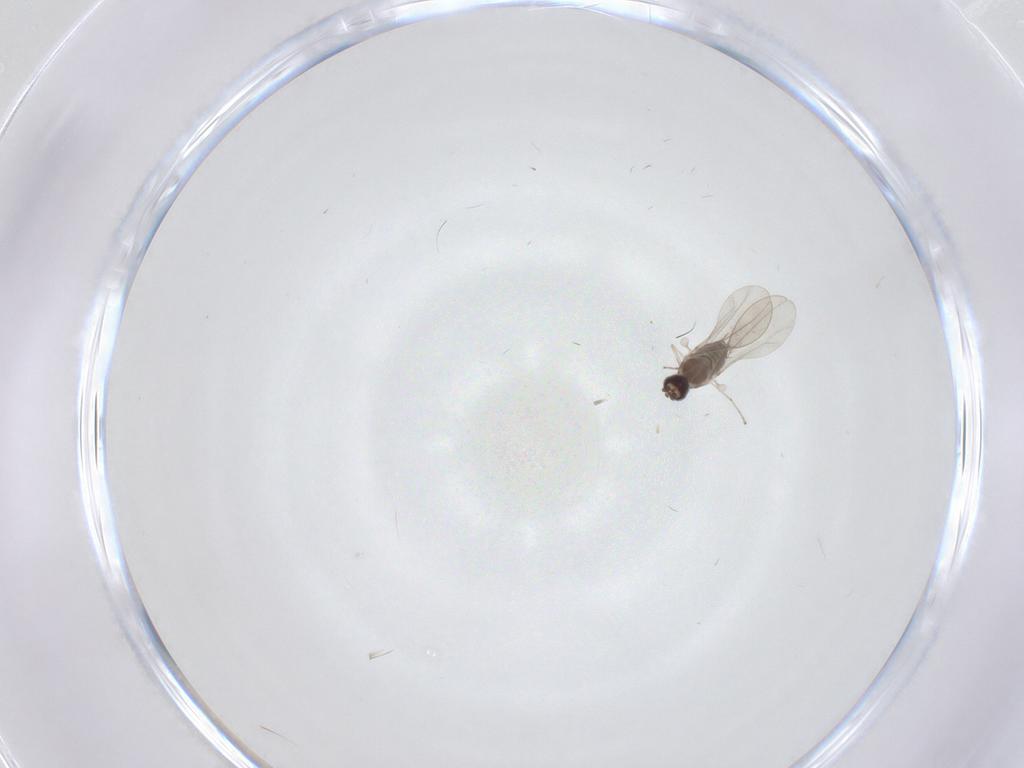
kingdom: Animalia
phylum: Arthropoda
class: Insecta
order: Diptera
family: Cecidomyiidae
